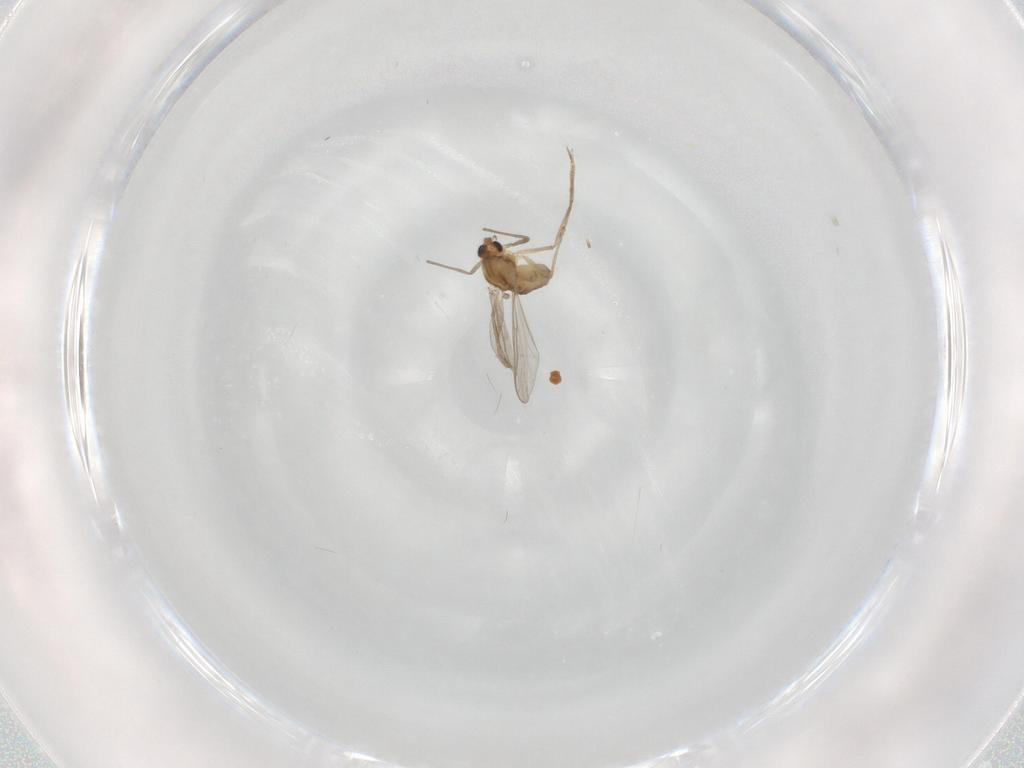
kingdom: Animalia
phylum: Arthropoda
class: Insecta
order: Diptera
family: Chironomidae
